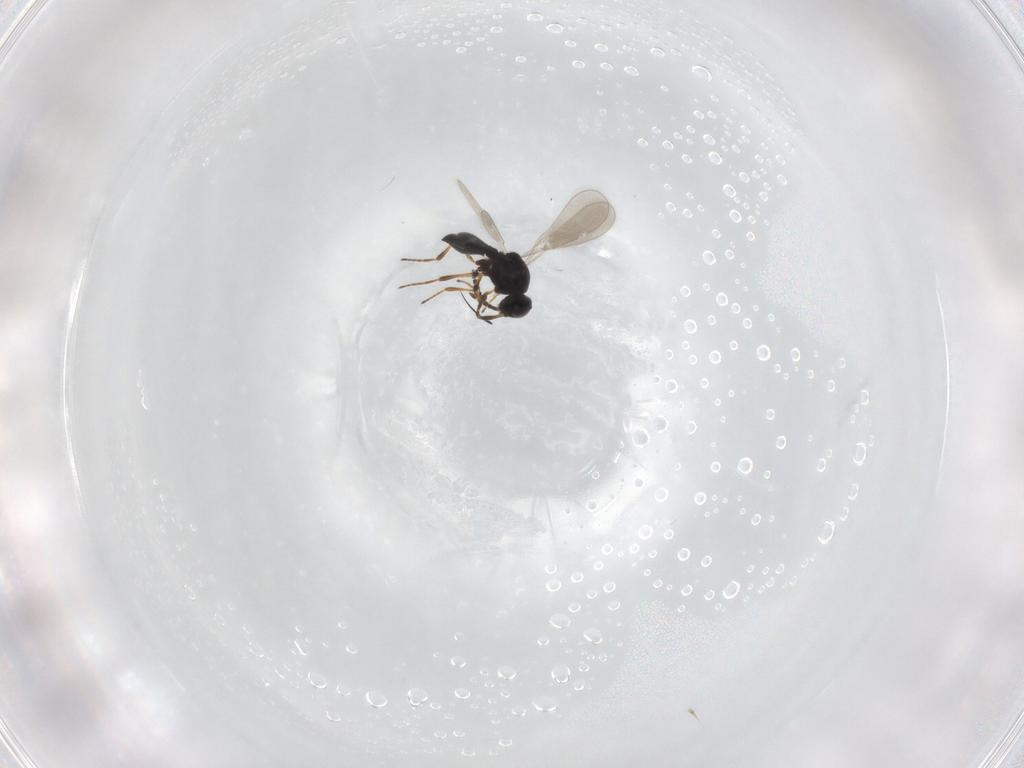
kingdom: Animalia
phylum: Arthropoda
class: Insecta
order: Hymenoptera
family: Platygastridae
